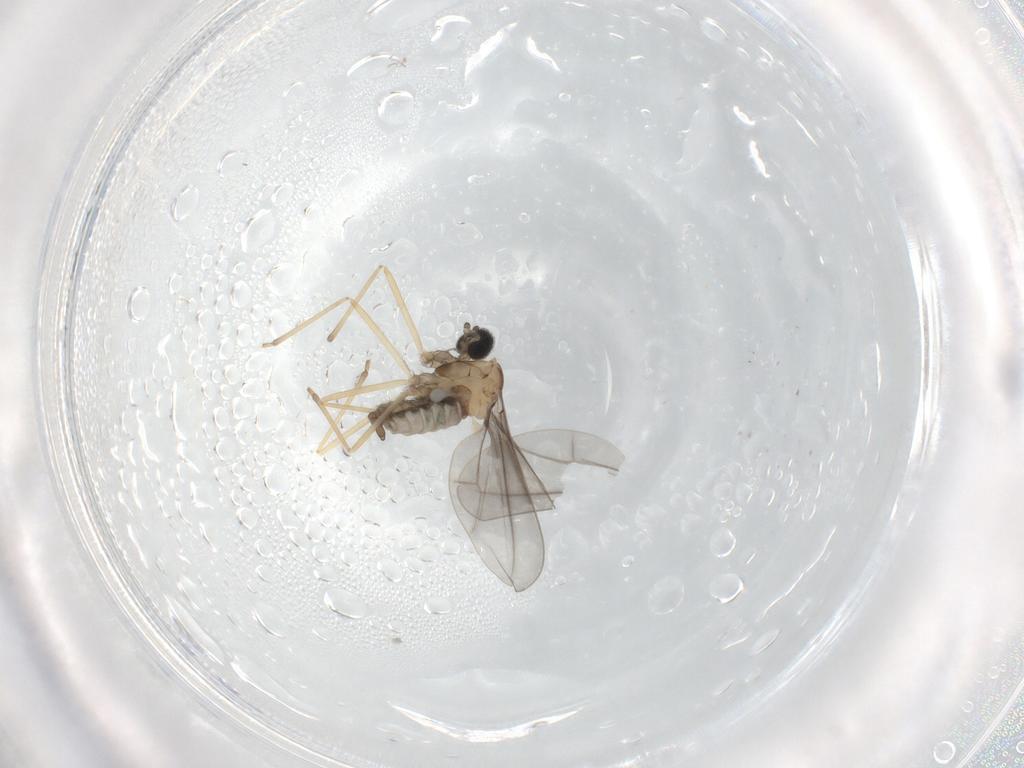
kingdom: Animalia
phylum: Arthropoda
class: Insecta
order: Diptera
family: Cecidomyiidae
